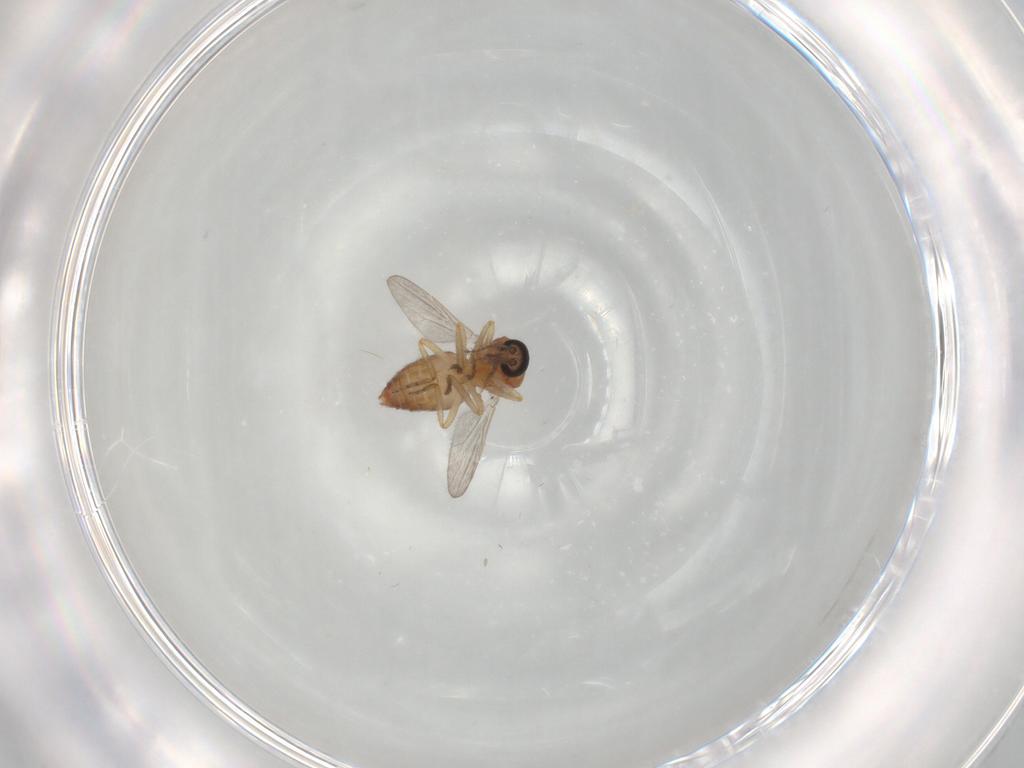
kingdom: Animalia
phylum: Arthropoda
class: Insecta
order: Diptera
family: Ceratopogonidae
